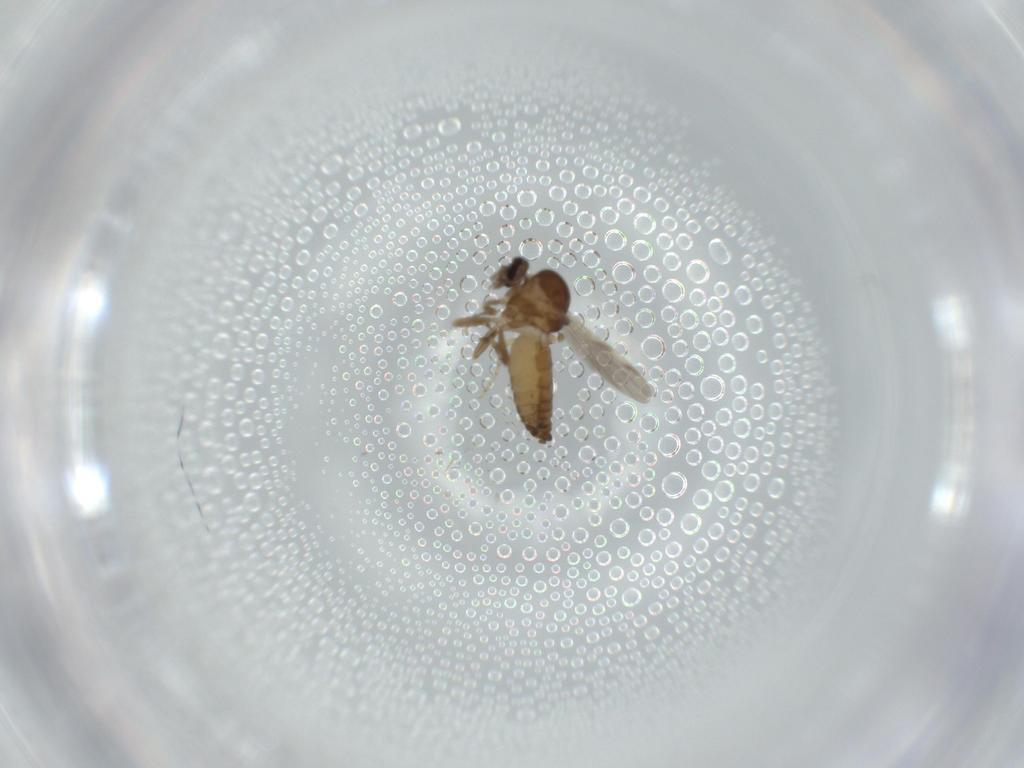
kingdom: Animalia
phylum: Arthropoda
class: Insecta
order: Diptera
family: Ceratopogonidae
